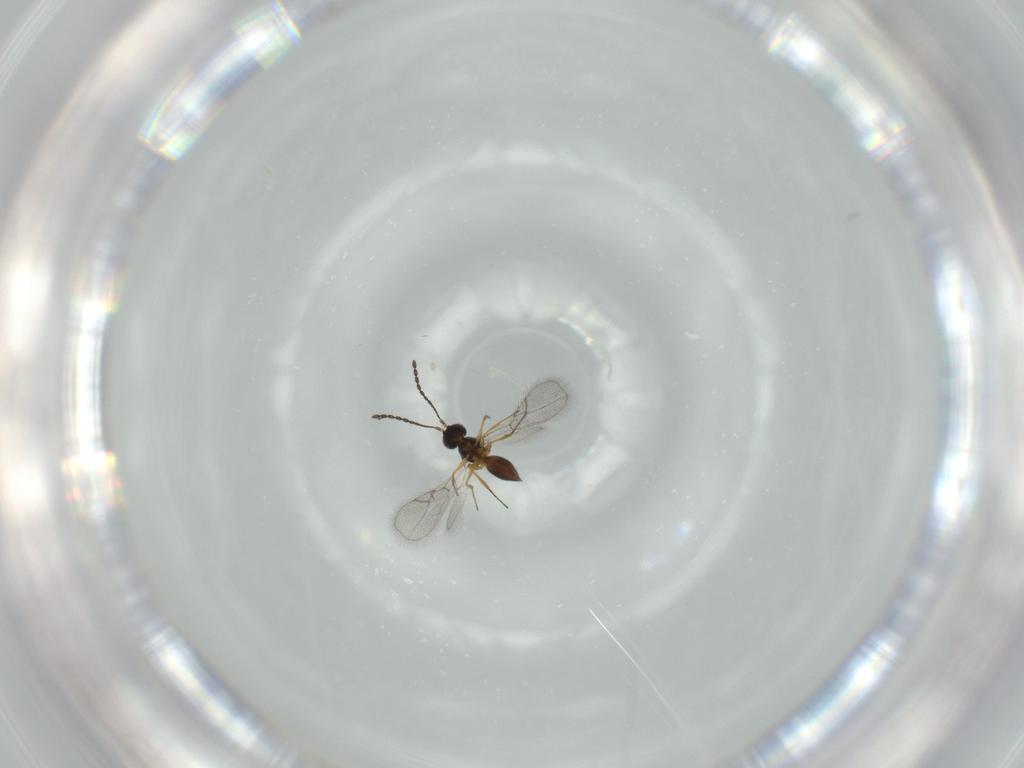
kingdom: Animalia
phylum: Arthropoda
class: Insecta
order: Hymenoptera
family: Figitidae
